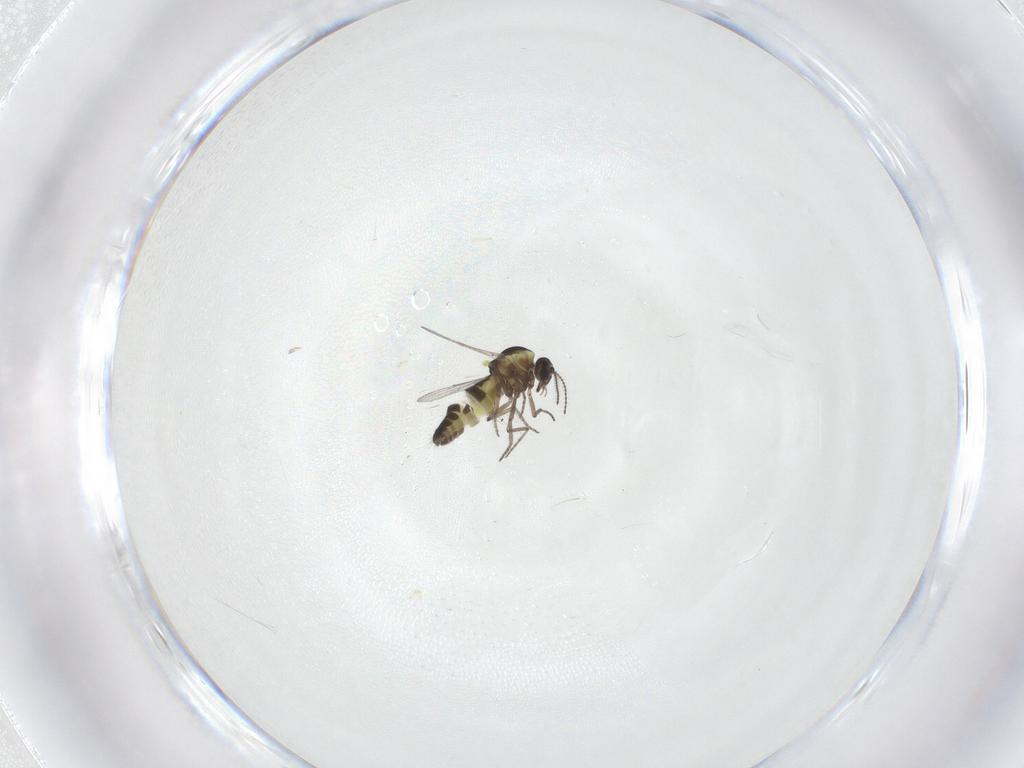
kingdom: Animalia
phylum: Arthropoda
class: Insecta
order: Diptera
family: Ceratopogonidae
